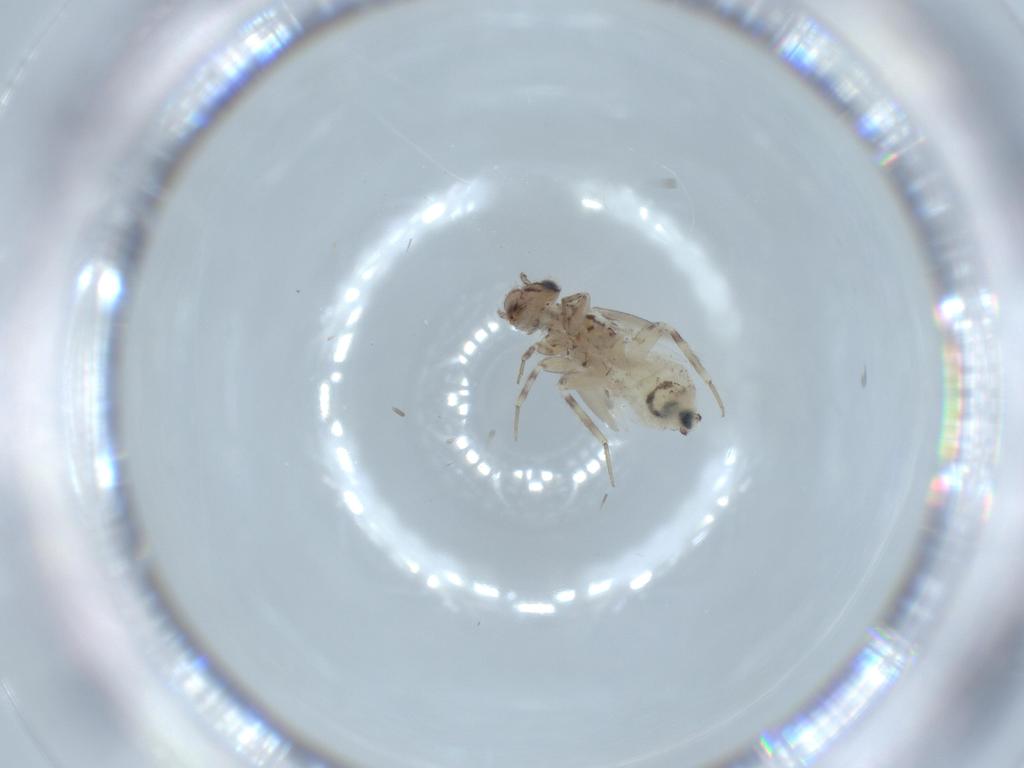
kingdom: Animalia
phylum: Arthropoda
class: Insecta
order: Psocodea
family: Lepidopsocidae
